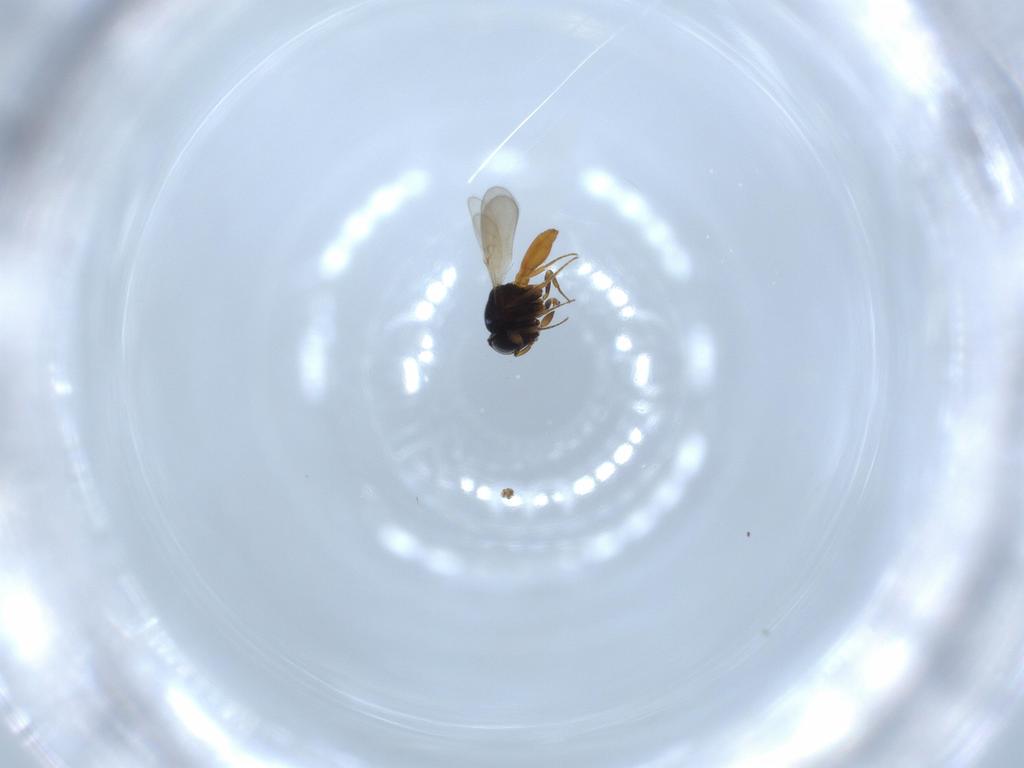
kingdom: Animalia
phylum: Arthropoda
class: Insecta
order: Hymenoptera
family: Scelionidae
